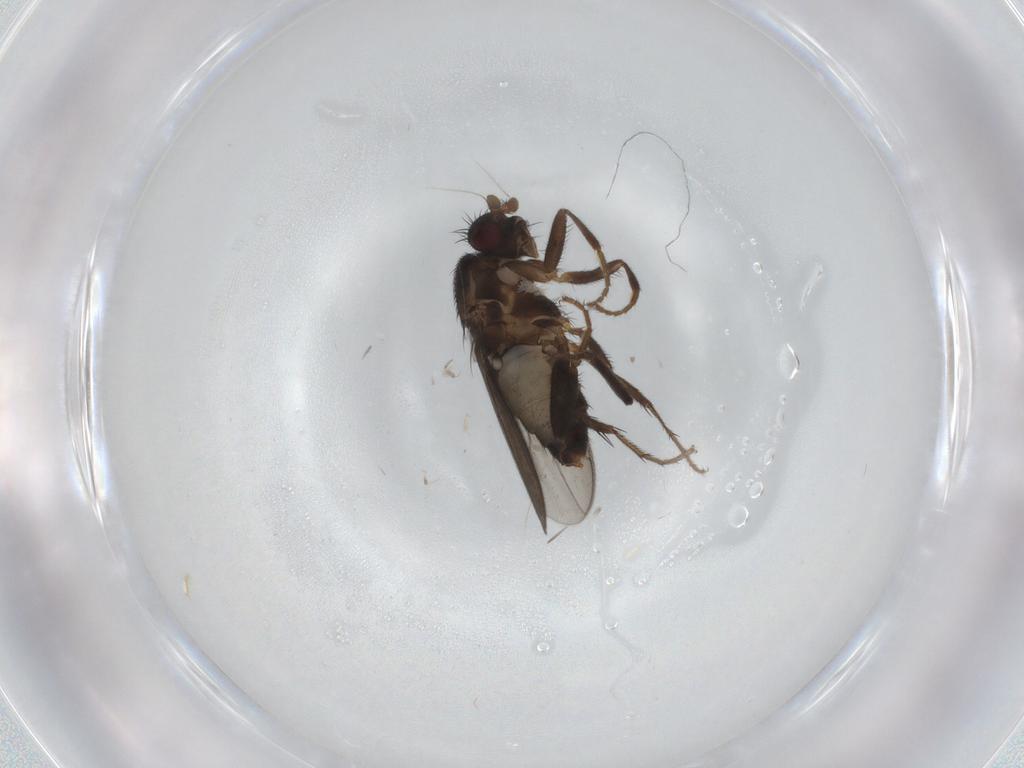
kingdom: Animalia
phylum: Arthropoda
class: Insecta
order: Diptera
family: Sphaeroceridae
